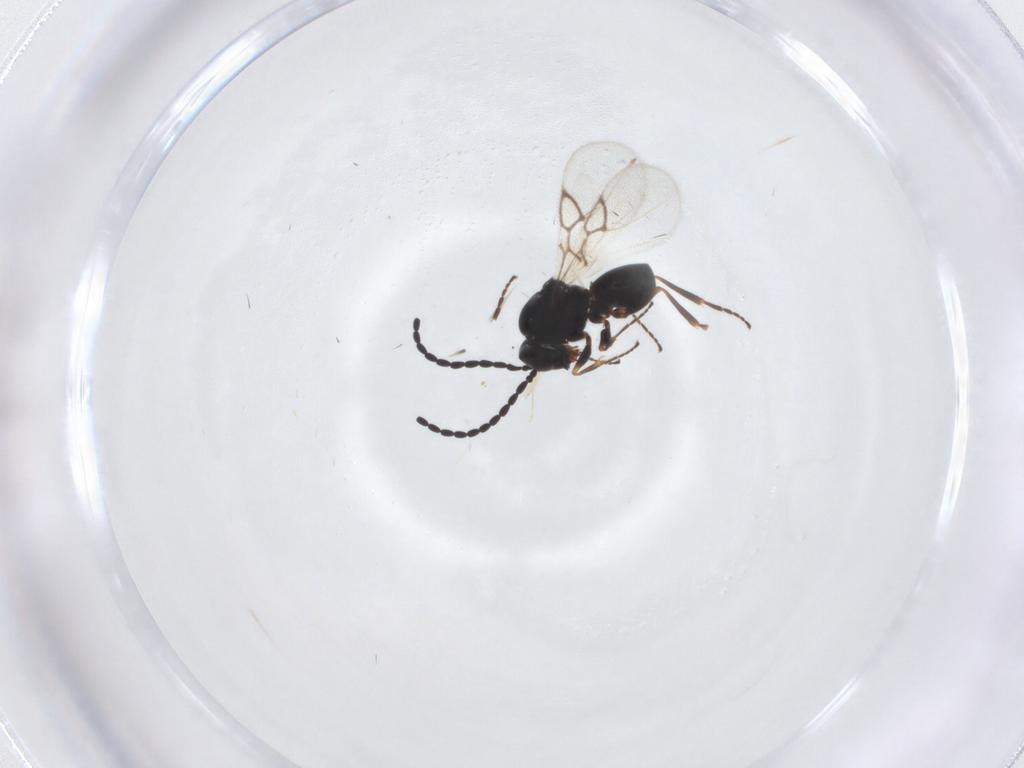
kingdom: Animalia
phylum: Arthropoda
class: Insecta
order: Hymenoptera
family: Figitidae
